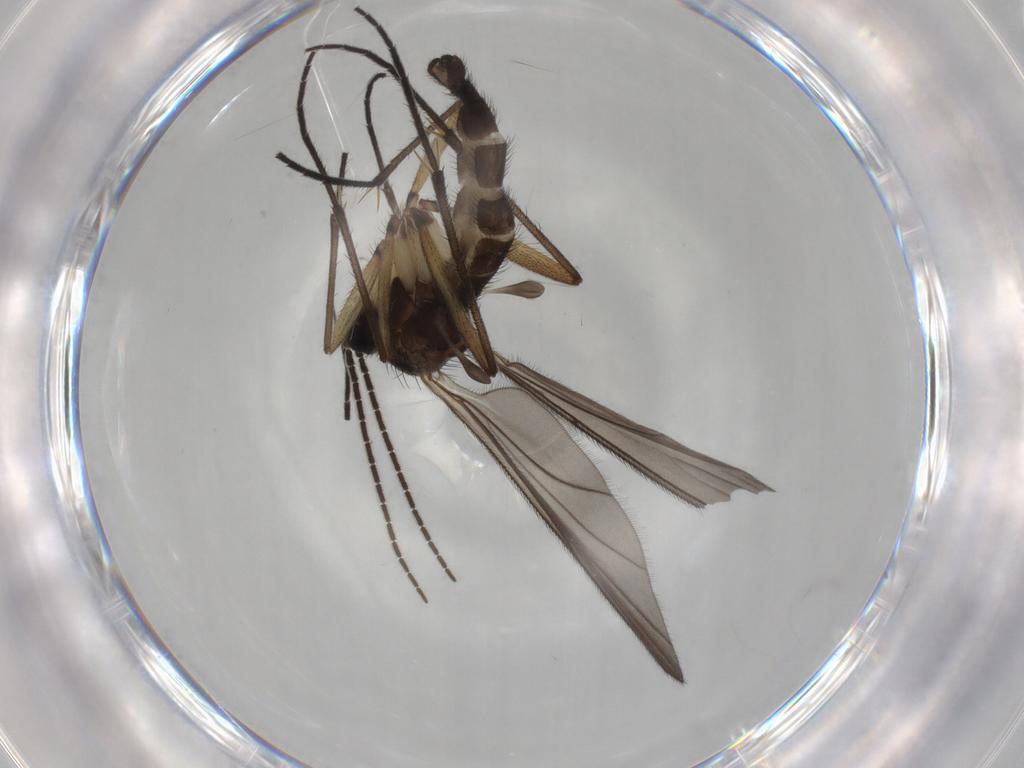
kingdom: Animalia
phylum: Arthropoda
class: Insecta
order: Diptera
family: Sciaridae
